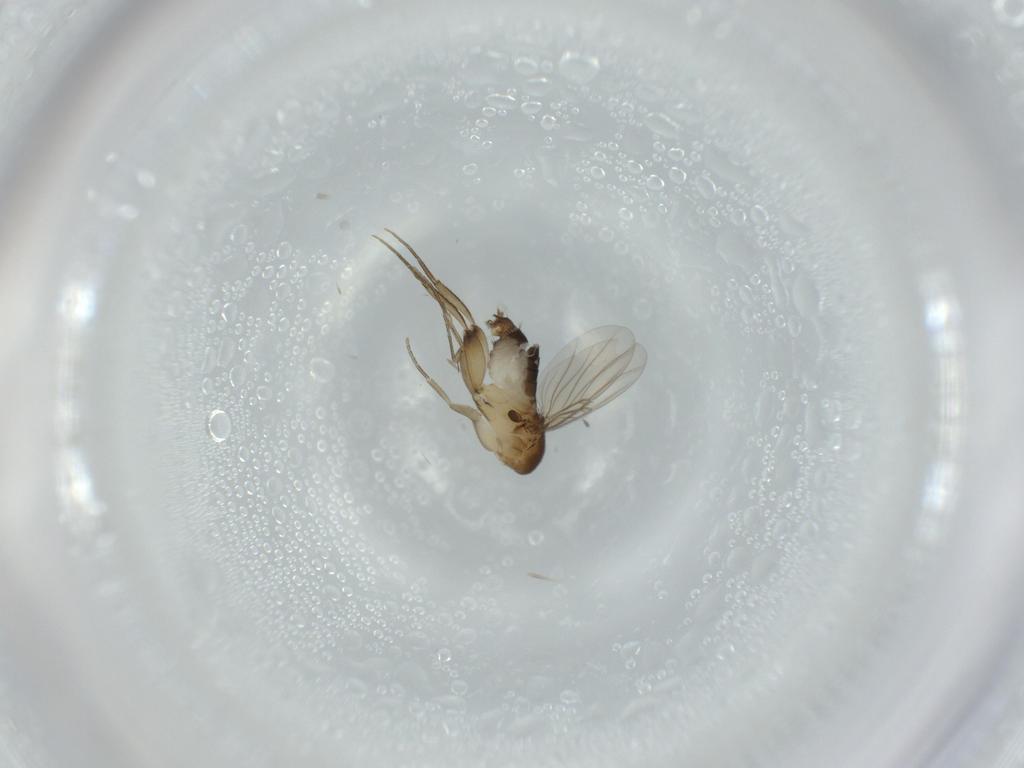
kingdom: Animalia
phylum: Arthropoda
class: Insecta
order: Diptera
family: Phoridae
